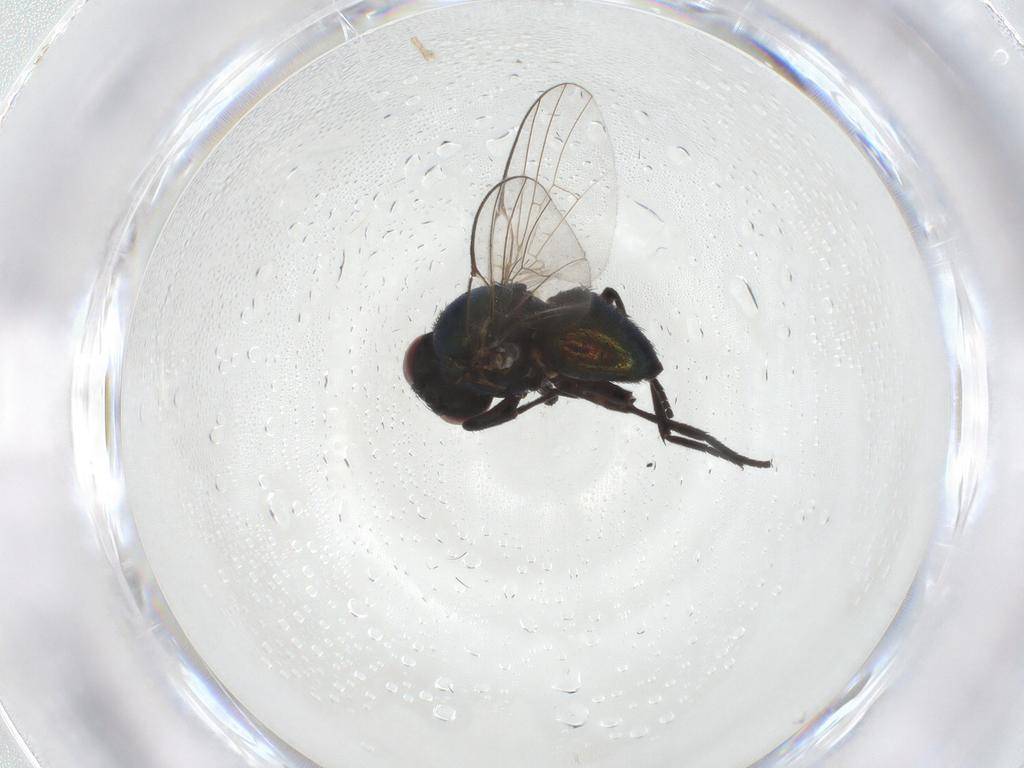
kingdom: Animalia
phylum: Arthropoda
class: Insecta
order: Diptera
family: Agromyzidae
